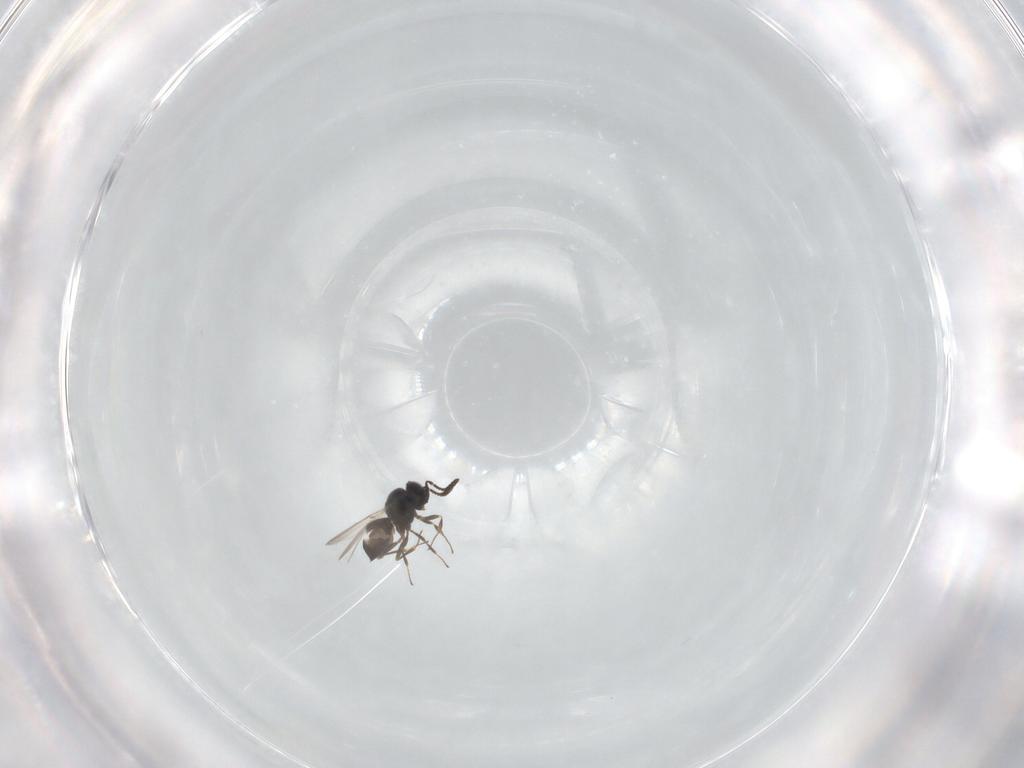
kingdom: Animalia
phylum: Arthropoda
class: Insecta
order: Hymenoptera
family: Scelionidae
